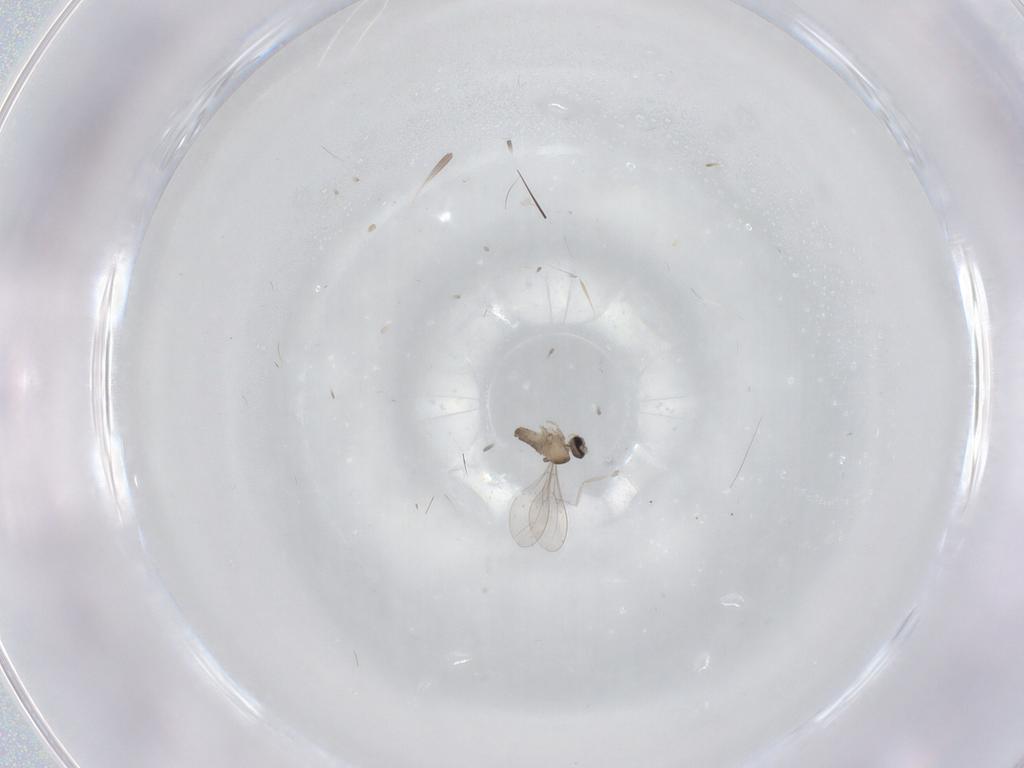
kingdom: Animalia
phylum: Arthropoda
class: Insecta
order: Diptera
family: Cecidomyiidae
